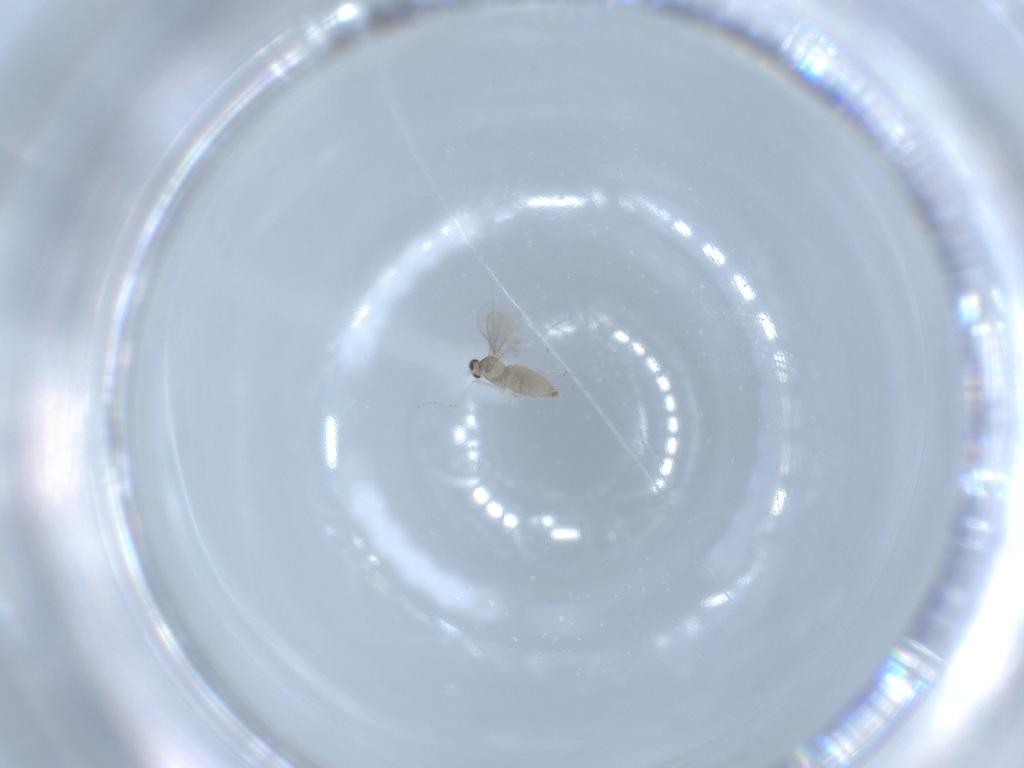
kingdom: Animalia
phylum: Arthropoda
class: Insecta
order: Diptera
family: Cecidomyiidae
